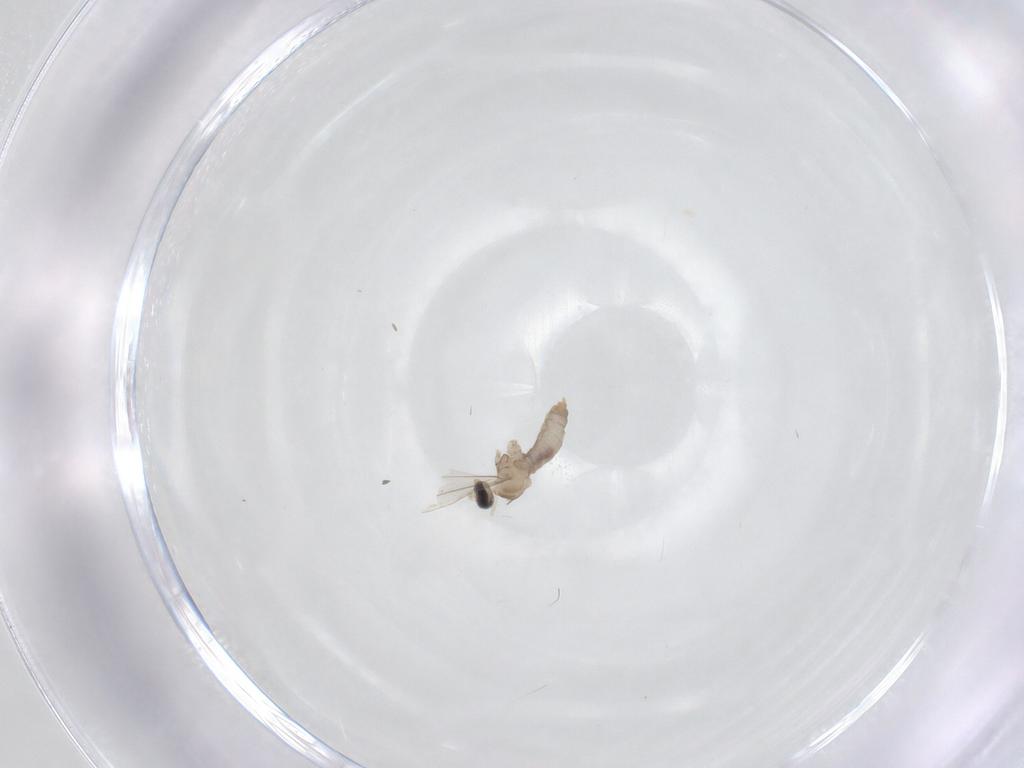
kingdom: Animalia
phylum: Arthropoda
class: Insecta
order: Diptera
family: Cecidomyiidae
